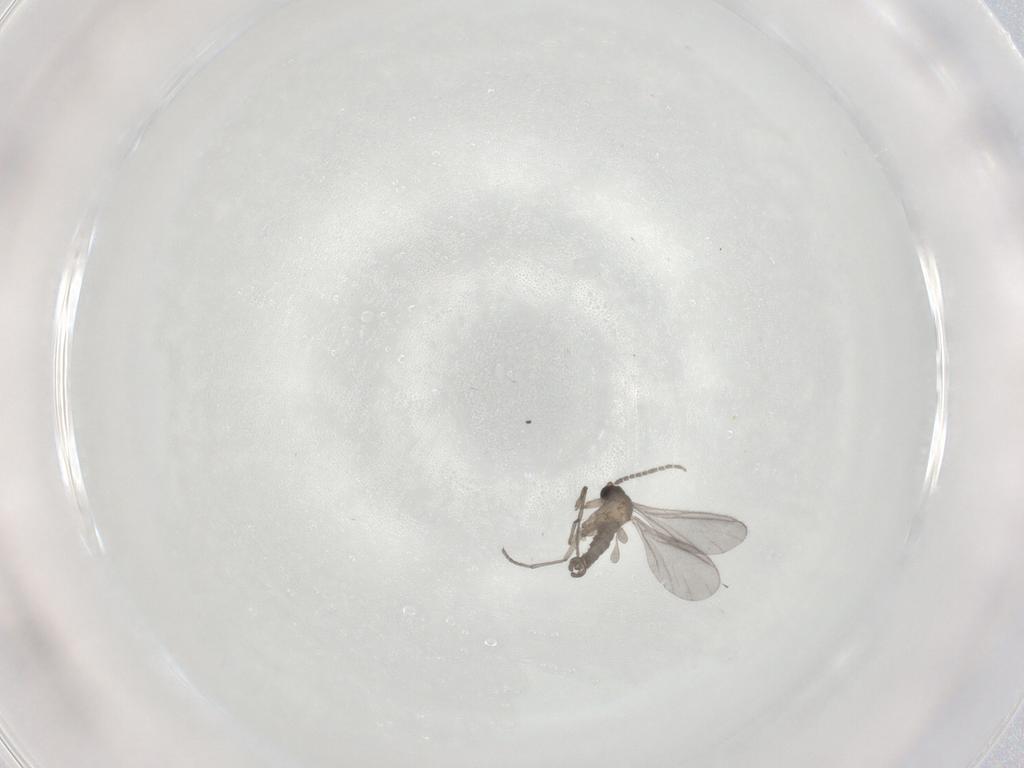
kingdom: Animalia
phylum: Arthropoda
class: Insecta
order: Diptera
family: Sciaridae
